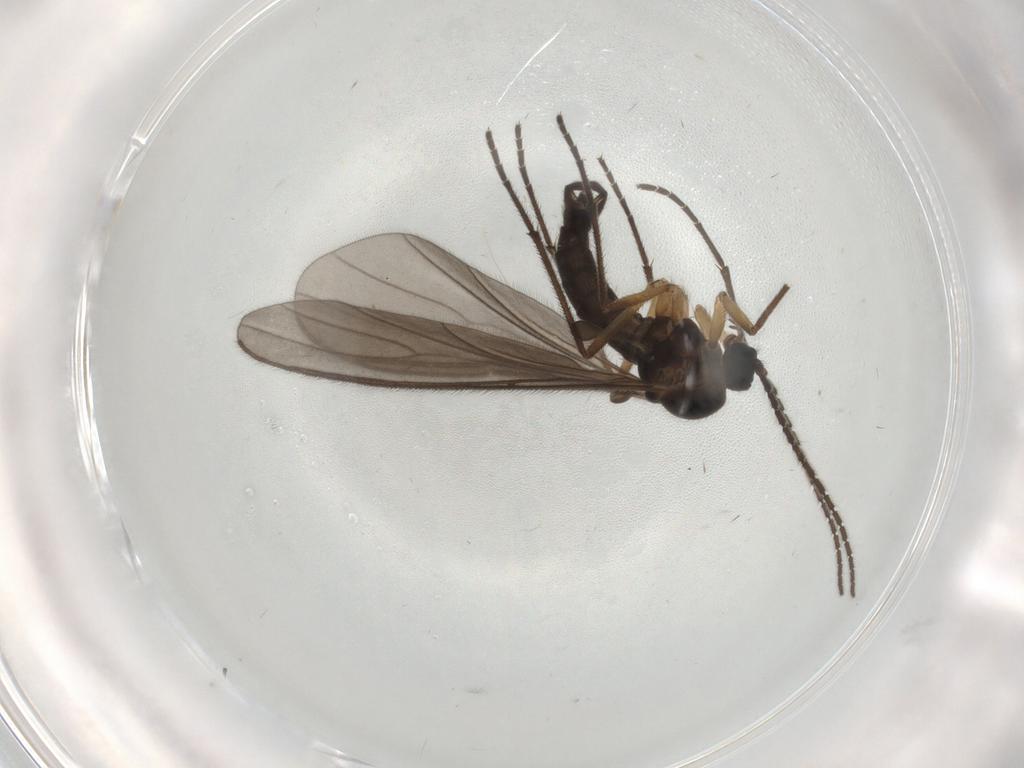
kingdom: Animalia
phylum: Arthropoda
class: Insecta
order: Diptera
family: Sciaridae
